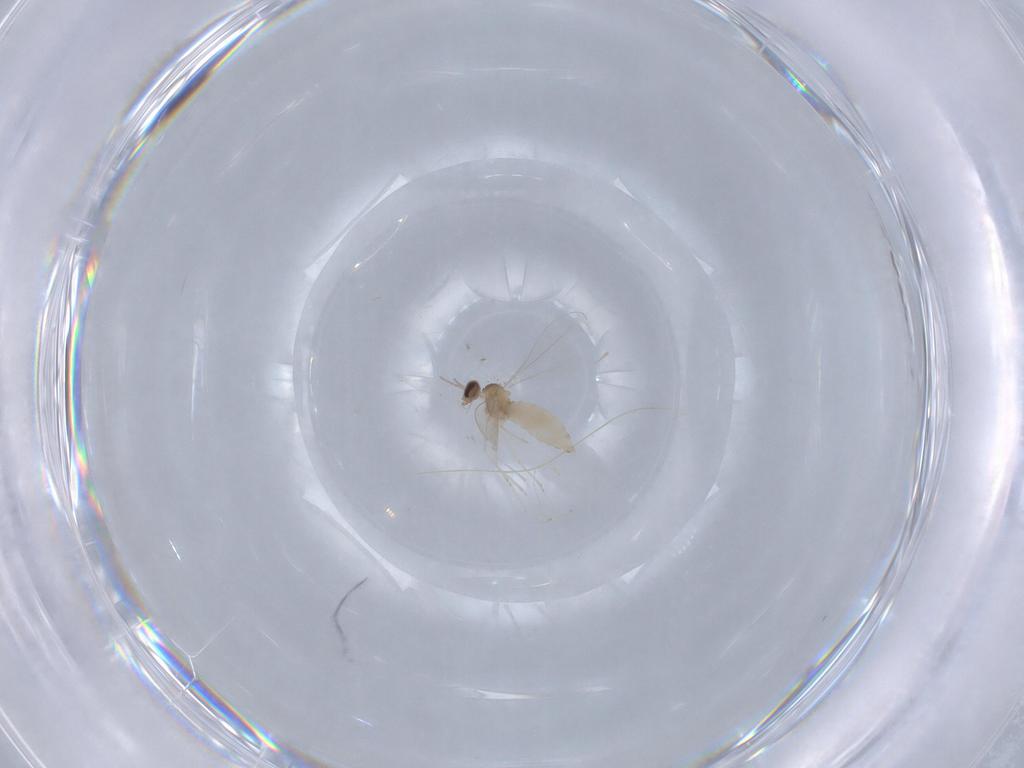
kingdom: Animalia
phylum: Arthropoda
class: Insecta
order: Diptera
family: Cecidomyiidae
